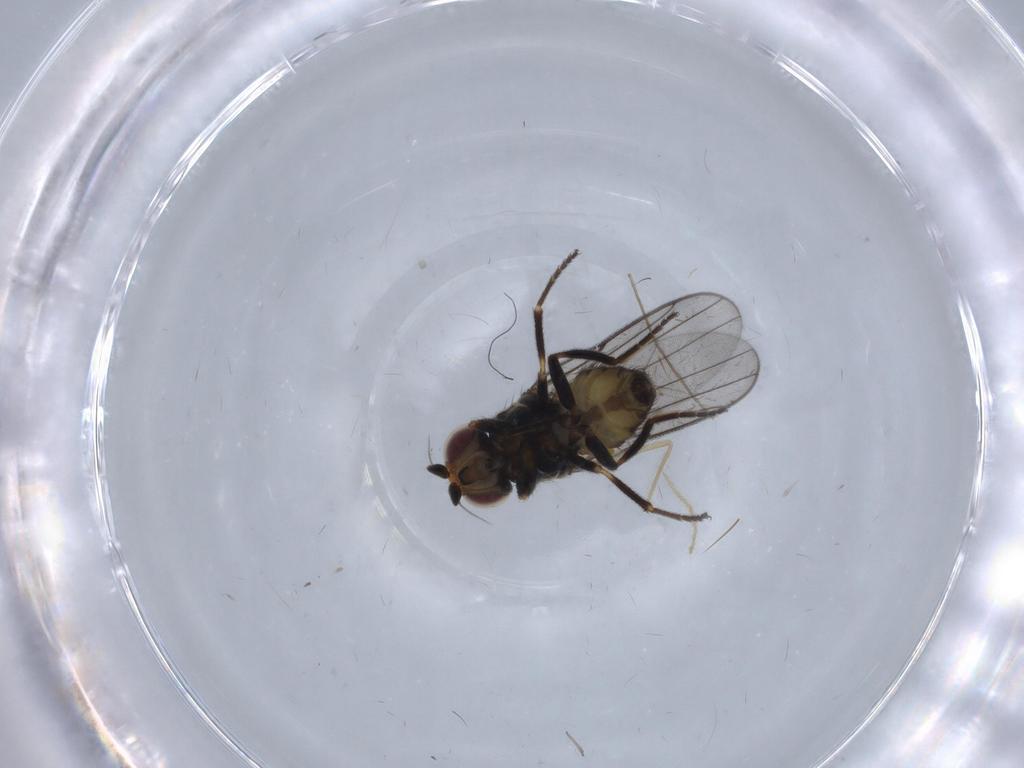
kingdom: Animalia
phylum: Arthropoda
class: Insecta
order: Diptera
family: Chloropidae
